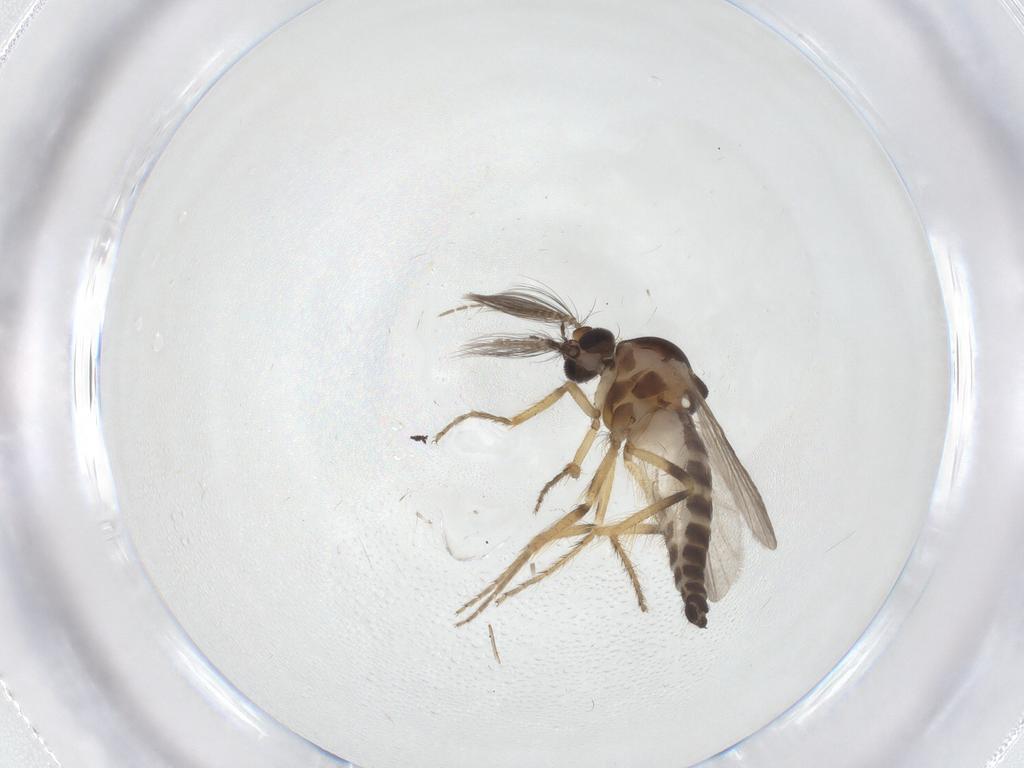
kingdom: Animalia
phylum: Arthropoda
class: Insecta
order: Diptera
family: Ceratopogonidae
